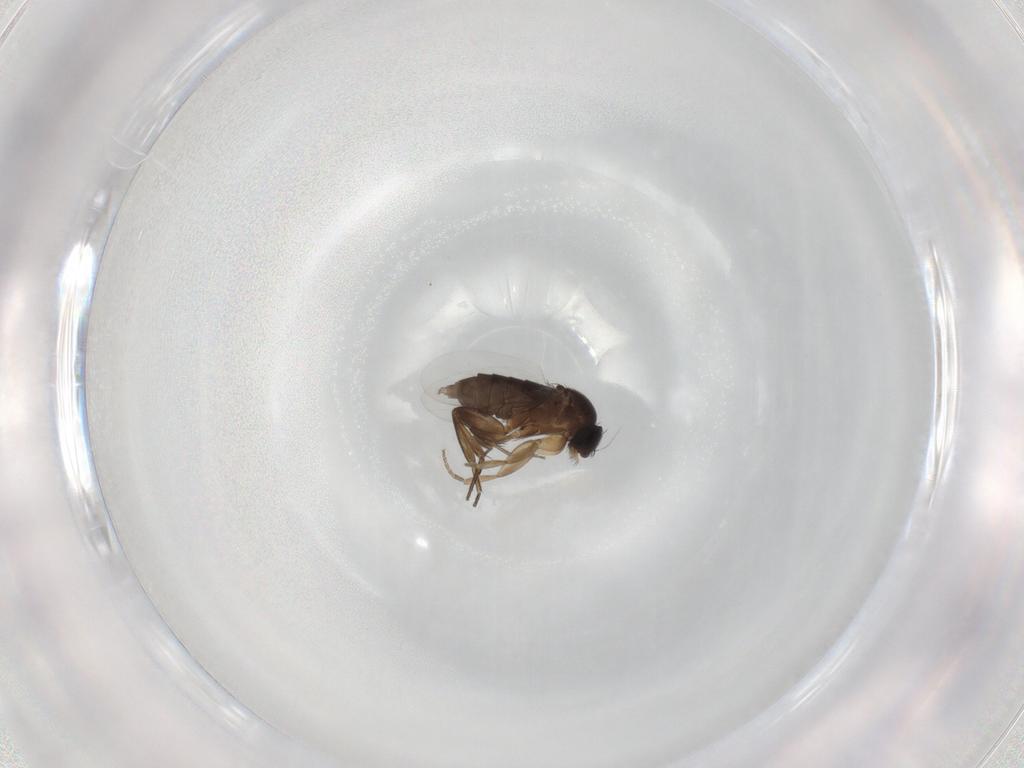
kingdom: Animalia
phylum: Arthropoda
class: Insecta
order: Diptera
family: Phoridae
